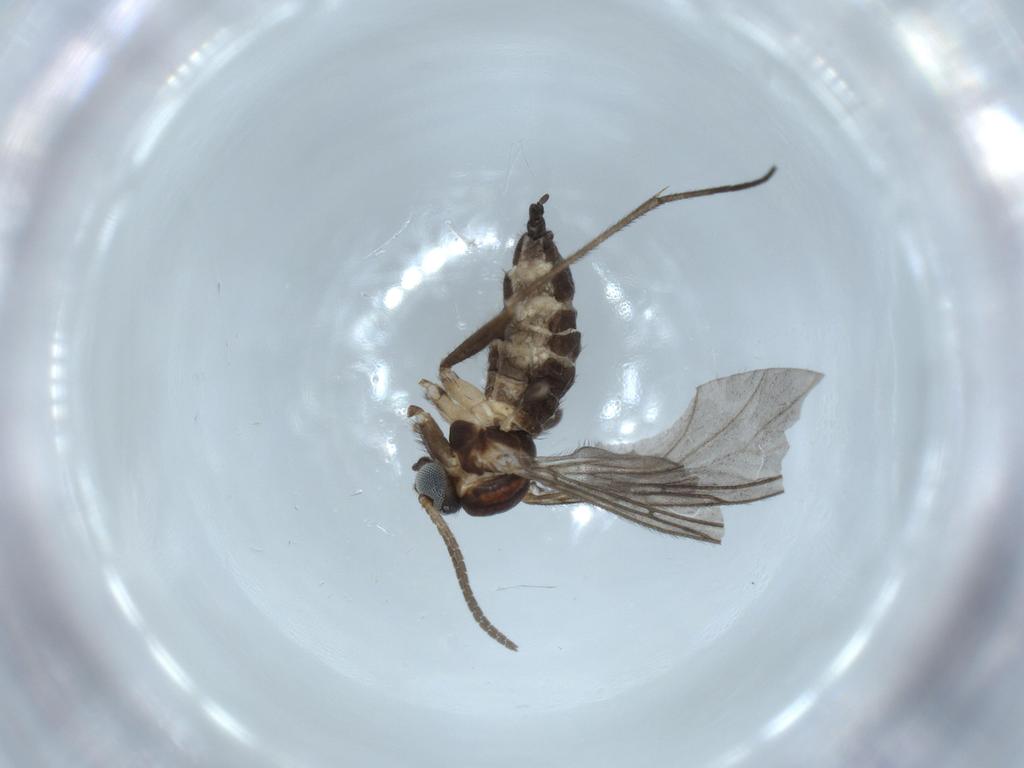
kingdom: Animalia
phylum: Arthropoda
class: Insecta
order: Diptera
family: Sciaridae
